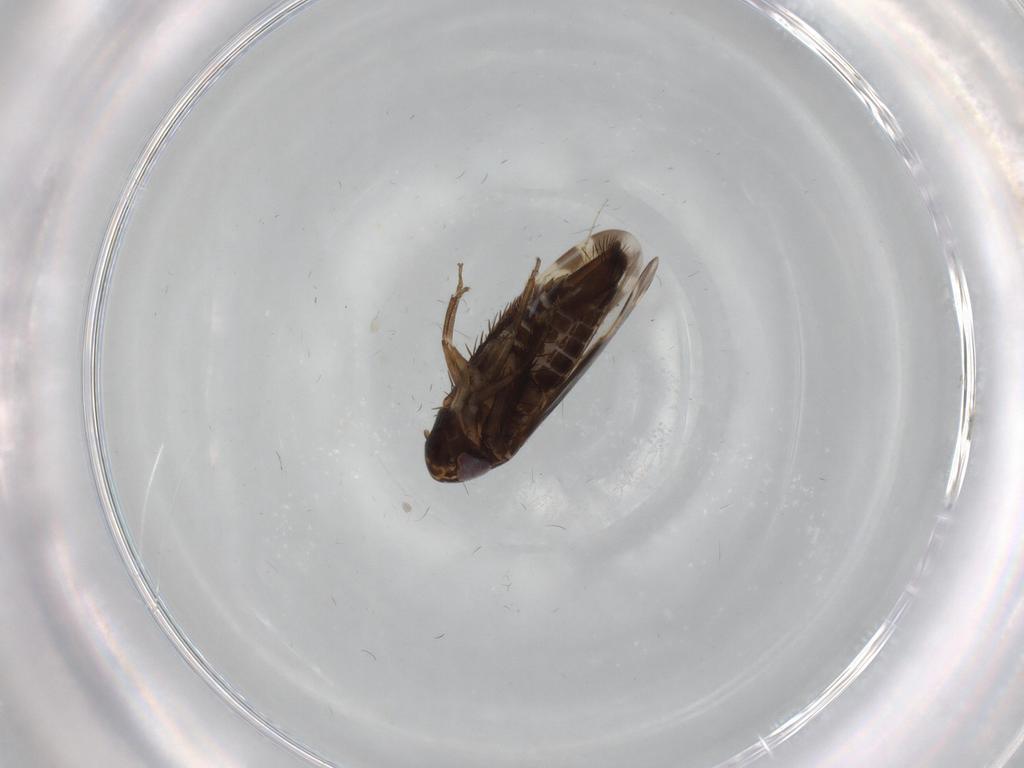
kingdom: Animalia
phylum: Arthropoda
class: Insecta
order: Hemiptera
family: Cicadellidae
